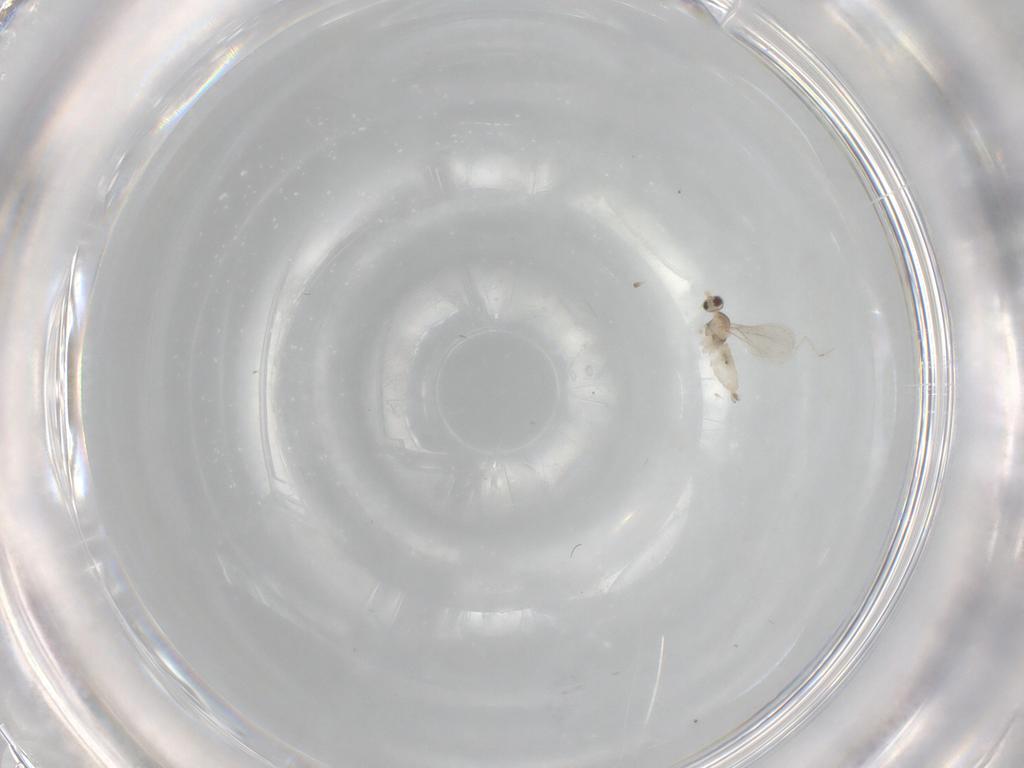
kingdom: Animalia
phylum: Arthropoda
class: Insecta
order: Diptera
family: Cecidomyiidae
